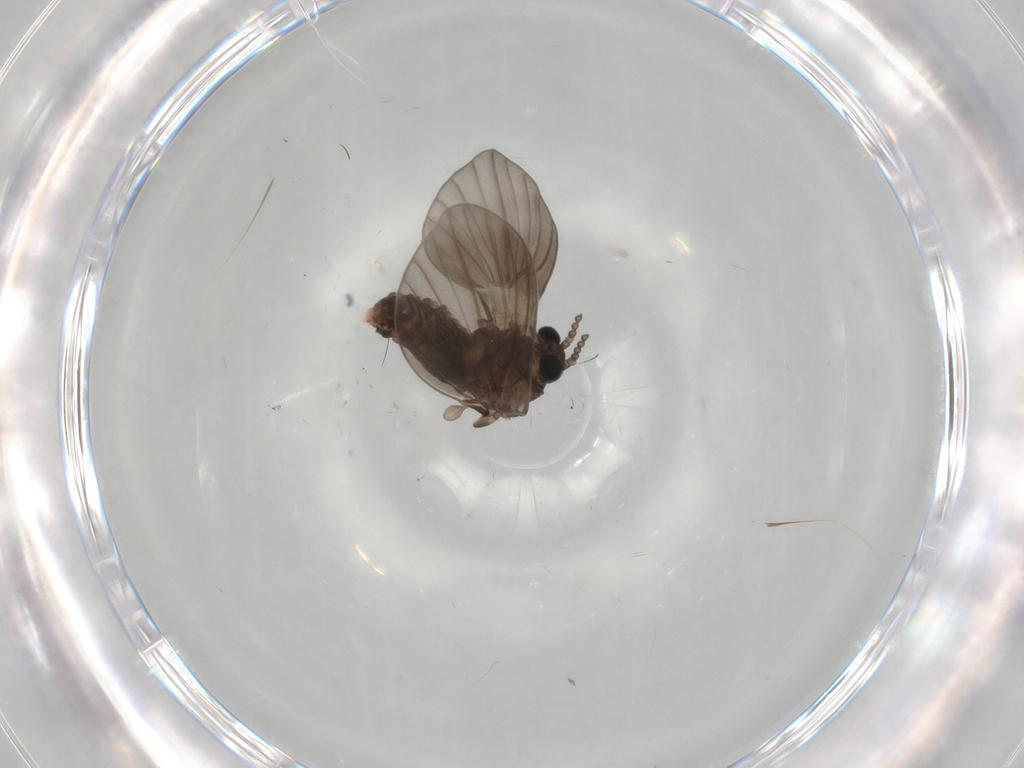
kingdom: Animalia
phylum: Arthropoda
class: Insecta
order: Diptera
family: Psychodidae
